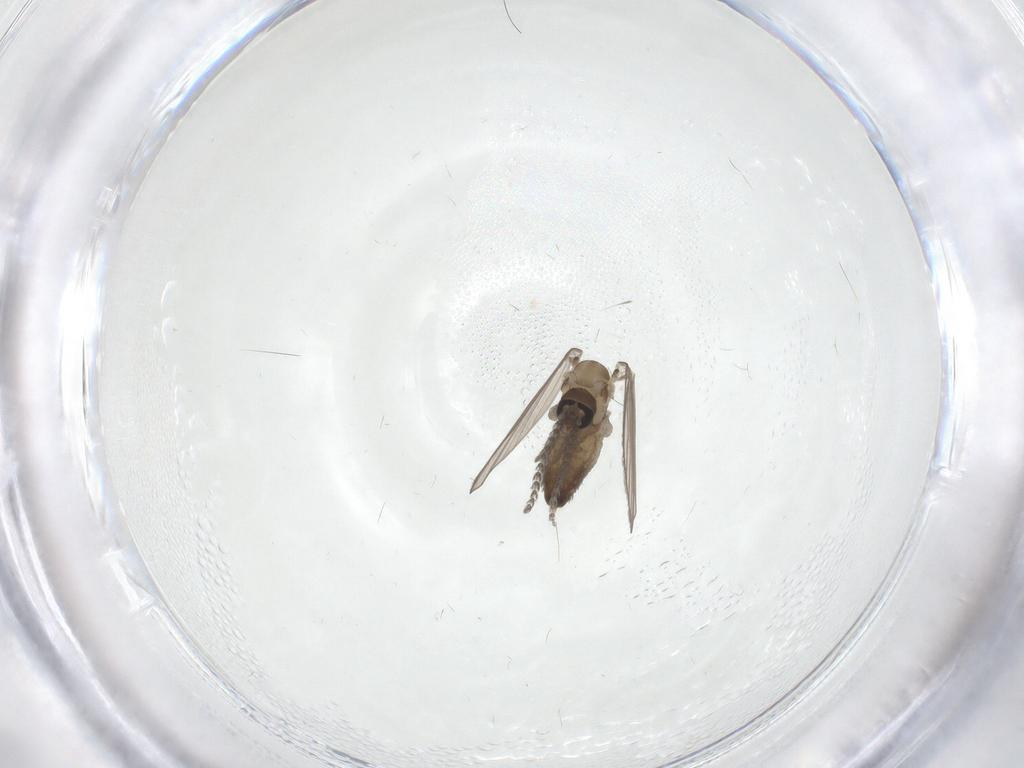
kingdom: Animalia
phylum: Arthropoda
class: Insecta
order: Diptera
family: Psychodidae
